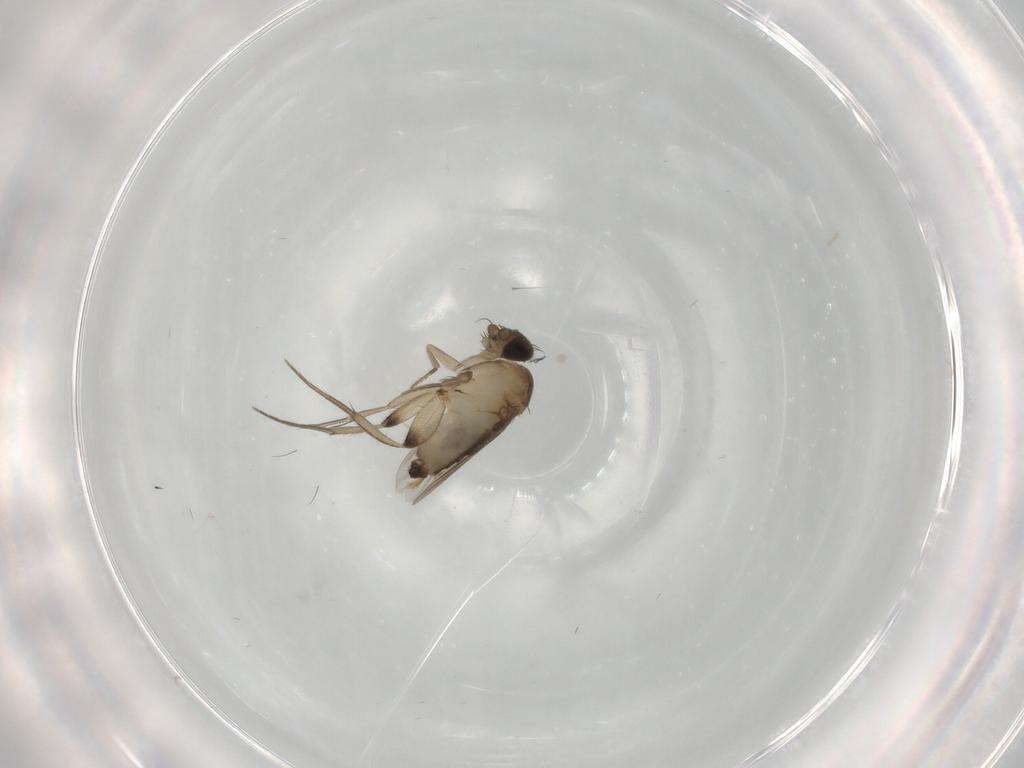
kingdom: Animalia
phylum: Arthropoda
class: Insecta
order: Diptera
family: Phoridae
